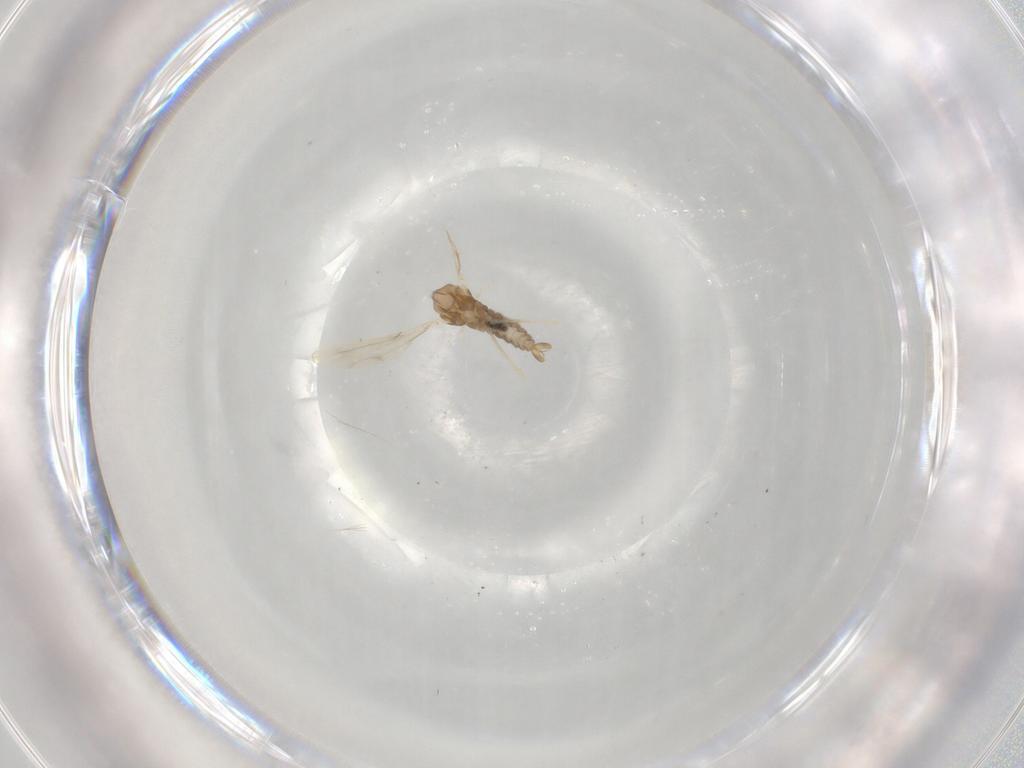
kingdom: Animalia
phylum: Arthropoda
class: Insecta
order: Diptera
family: Cecidomyiidae
